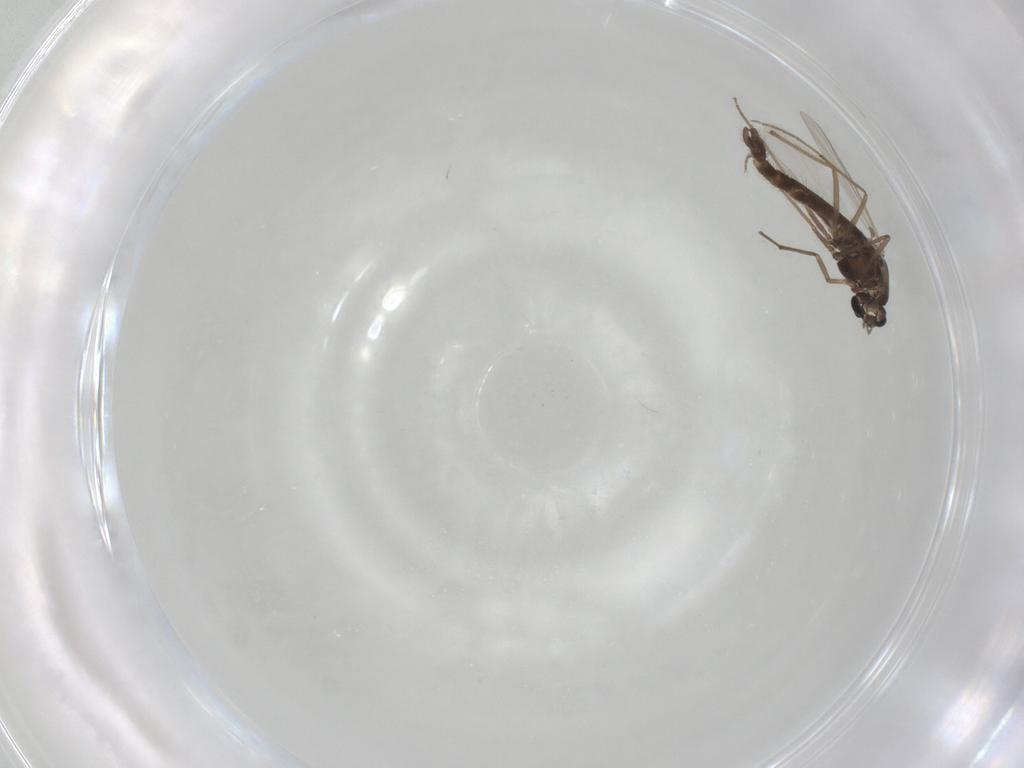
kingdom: Animalia
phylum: Arthropoda
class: Insecta
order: Diptera
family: Chironomidae
